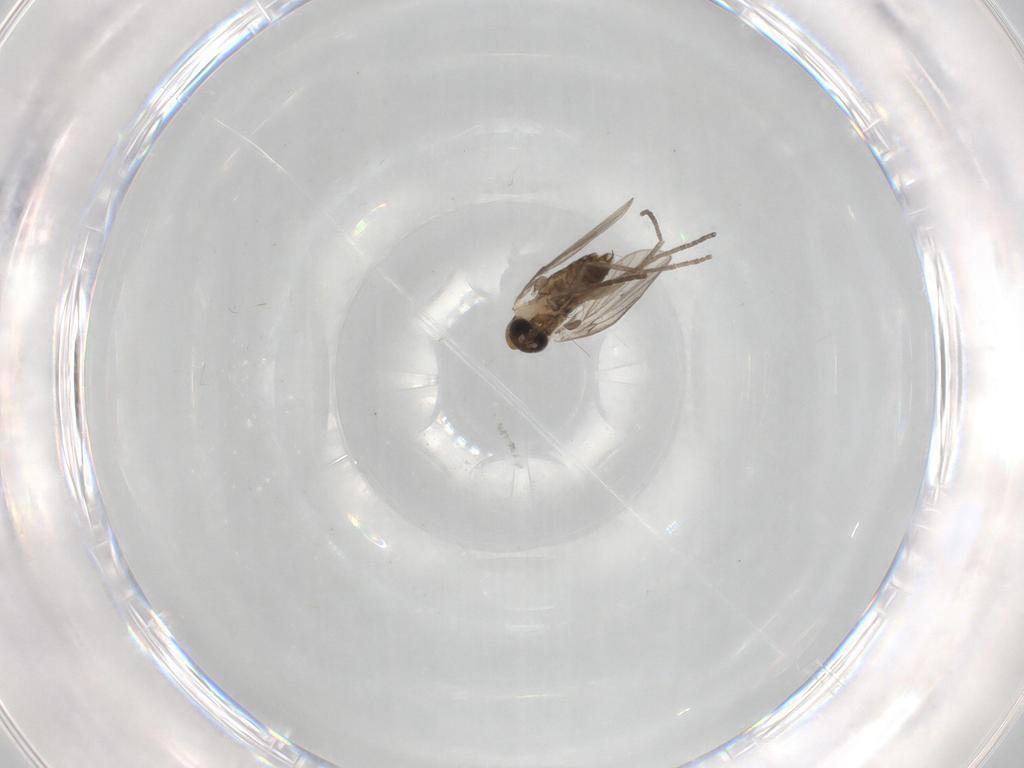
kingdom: Animalia
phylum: Arthropoda
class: Insecta
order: Diptera
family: Psychodidae
